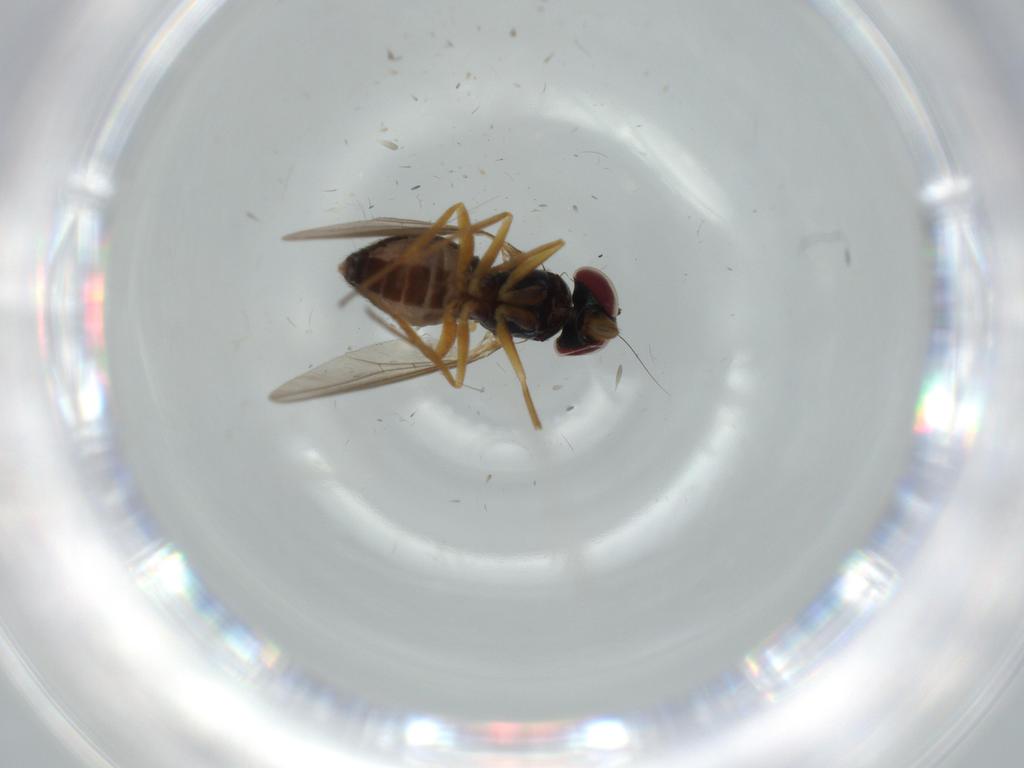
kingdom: Animalia
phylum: Arthropoda
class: Insecta
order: Diptera
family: Dolichopodidae
